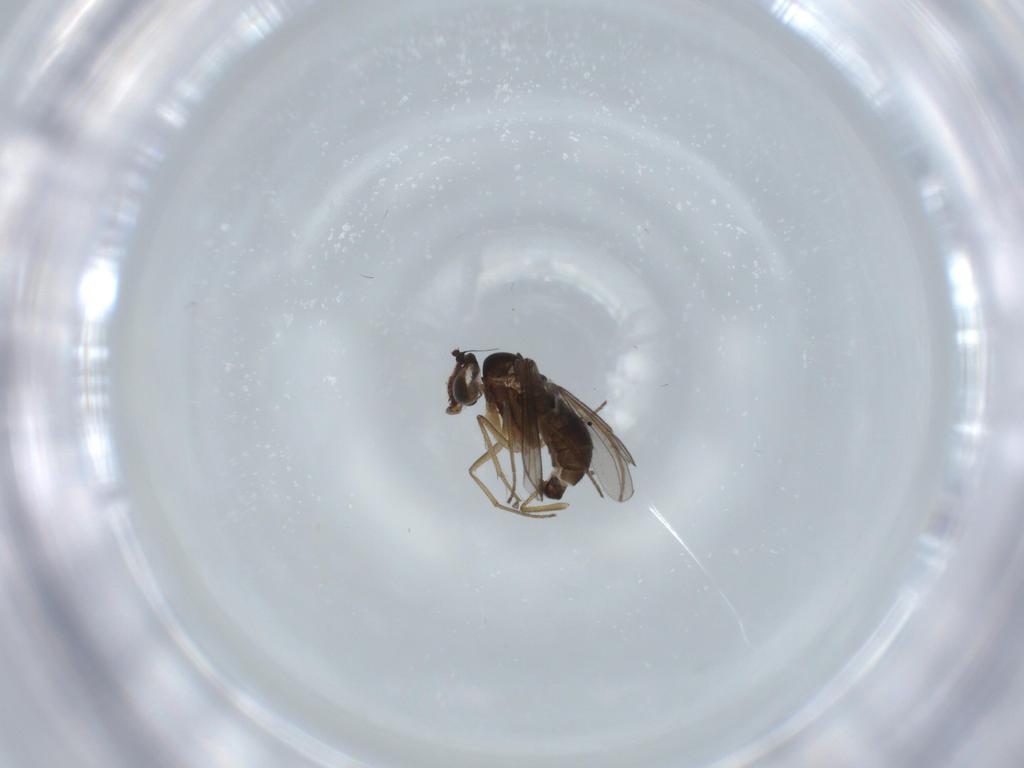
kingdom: Animalia
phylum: Arthropoda
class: Insecta
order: Diptera
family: Dolichopodidae
